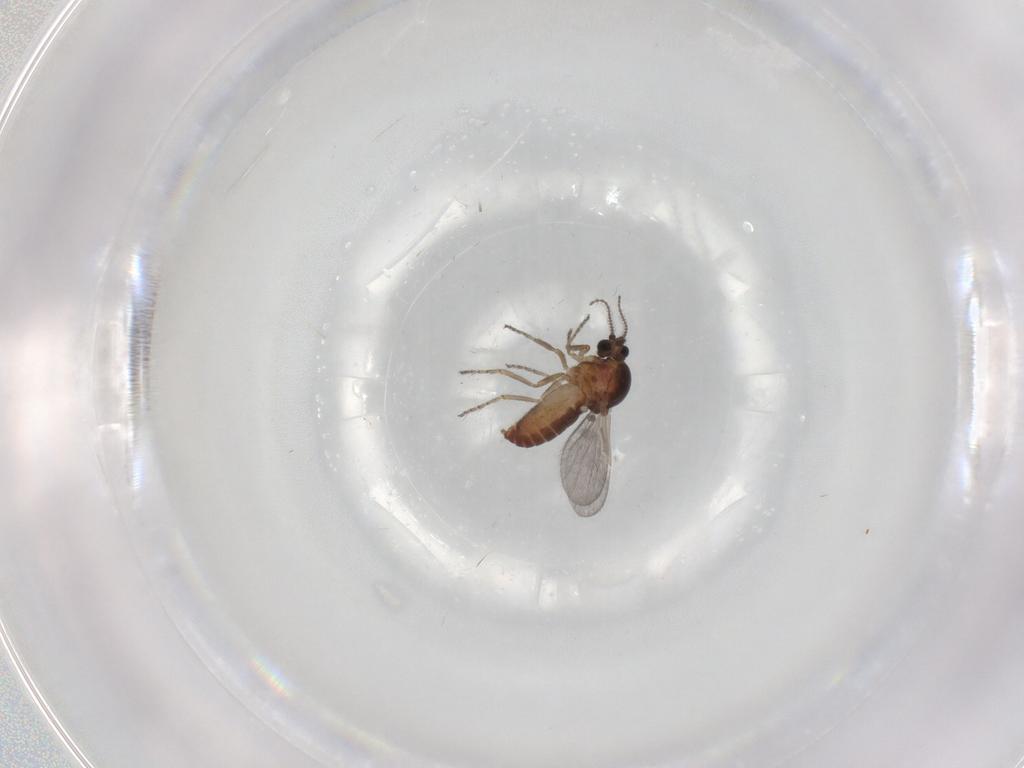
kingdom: Animalia
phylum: Arthropoda
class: Insecta
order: Diptera
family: Ceratopogonidae
